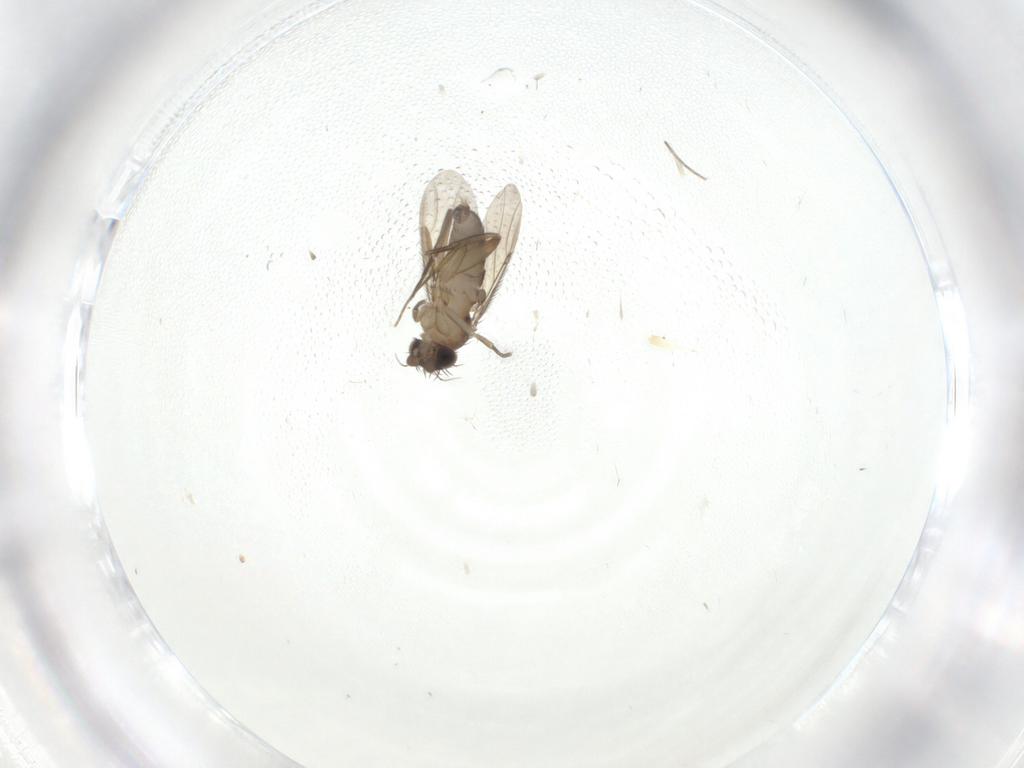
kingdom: Animalia
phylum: Arthropoda
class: Insecta
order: Diptera
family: Phoridae
